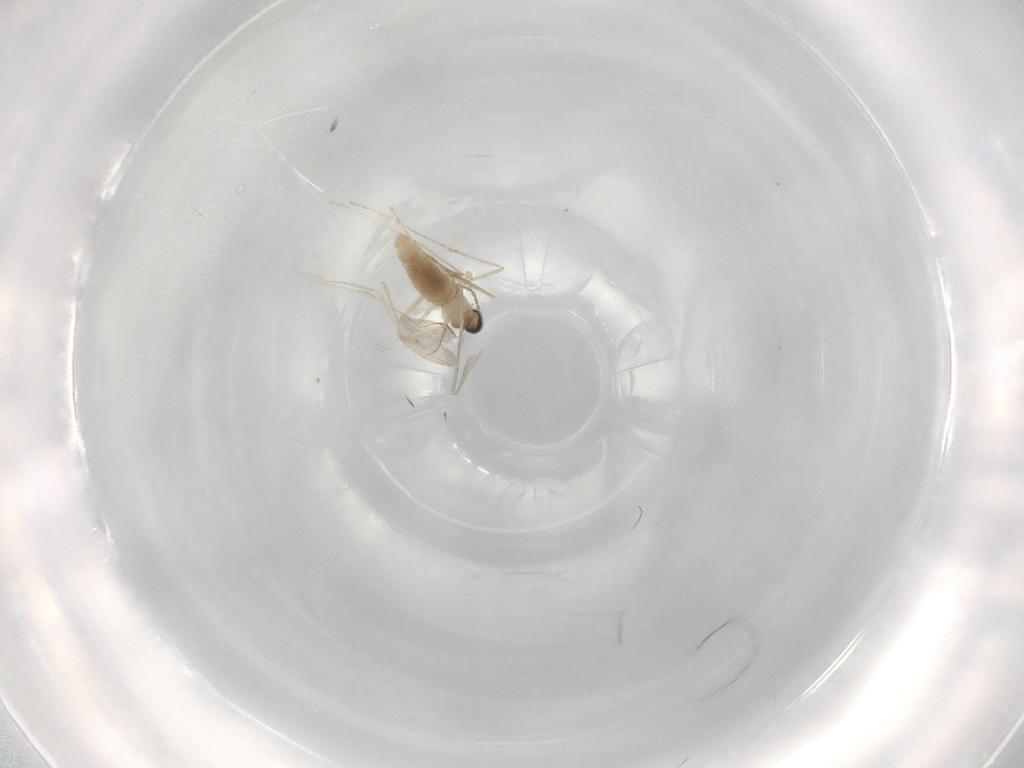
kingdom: Animalia
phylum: Arthropoda
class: Insecta
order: Diptera
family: Cecidomyiidae
